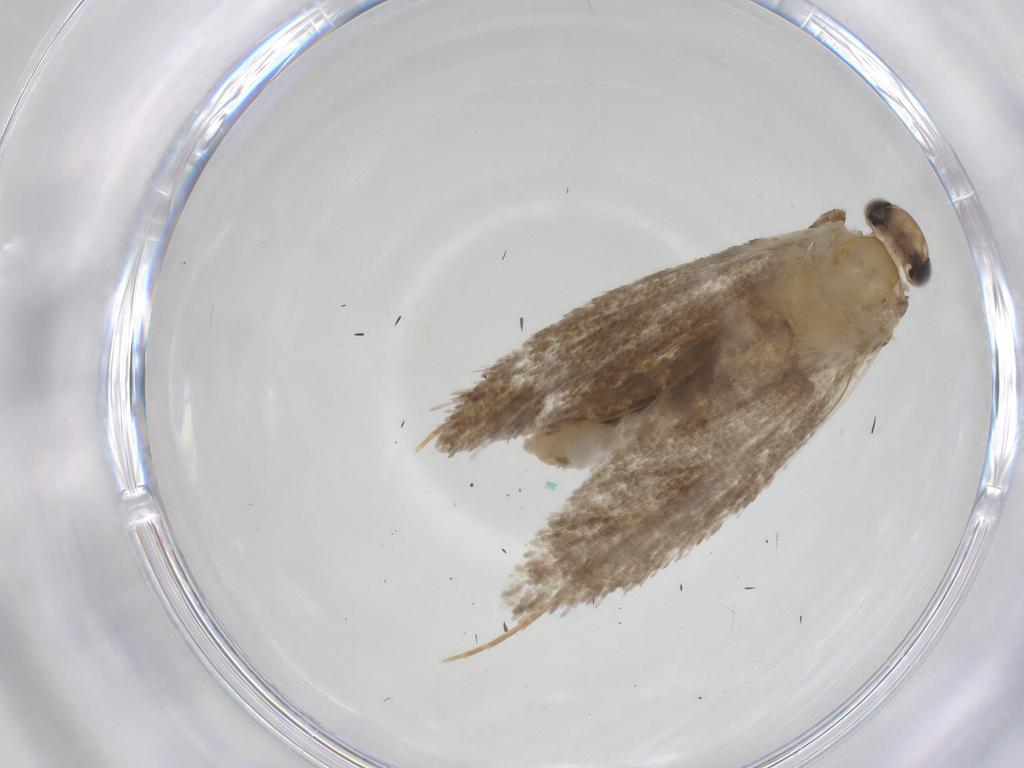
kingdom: Animalia
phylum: Arthropoda
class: Insecta
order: Lepidoptera
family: Tineidae
